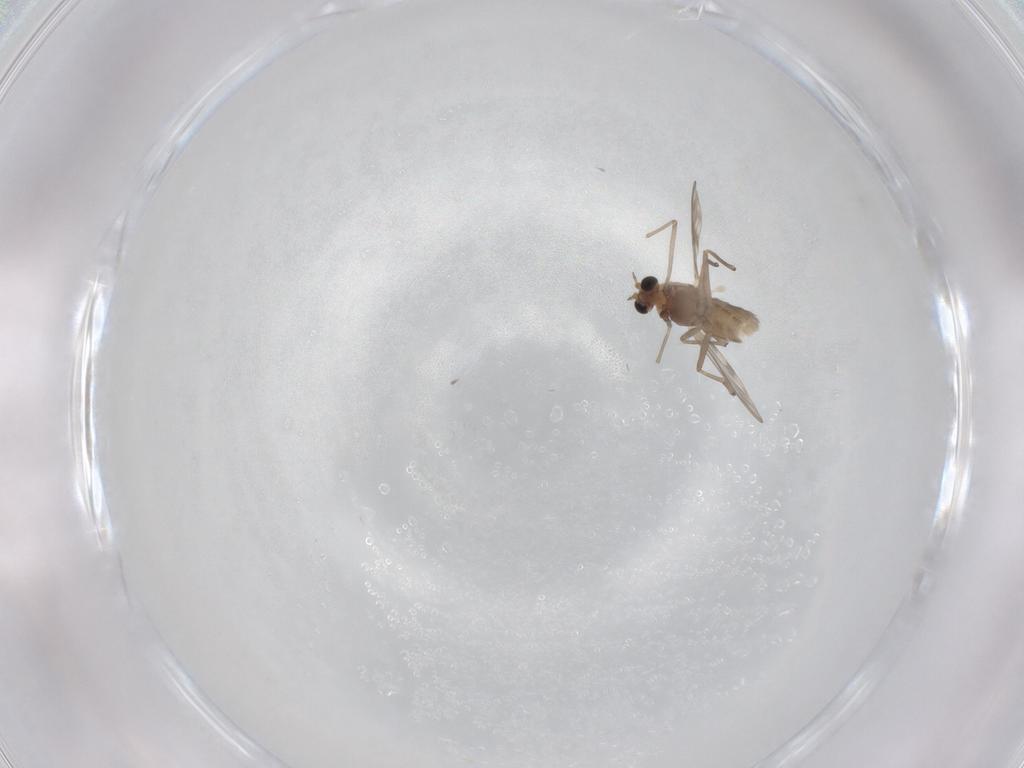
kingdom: Animalia
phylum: Arthropoda
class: Insecta
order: Diptera
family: Chironomidae
